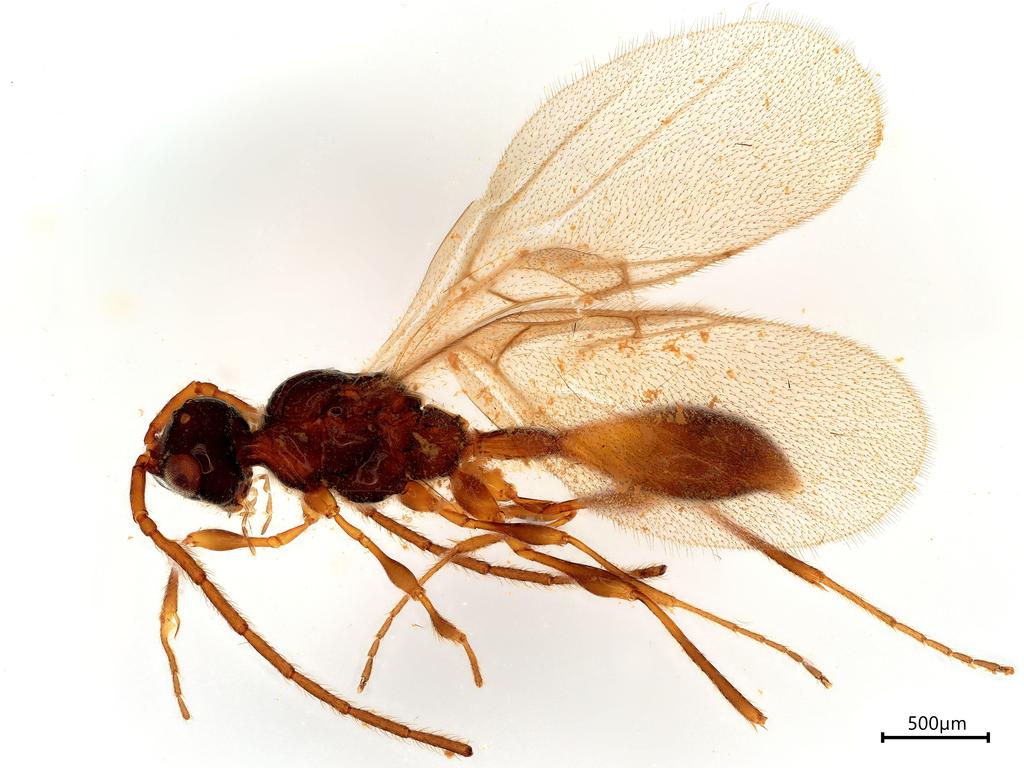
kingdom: Animalia
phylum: Arthropoda
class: Insecta
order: Hymenoptera
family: Diapriidae
